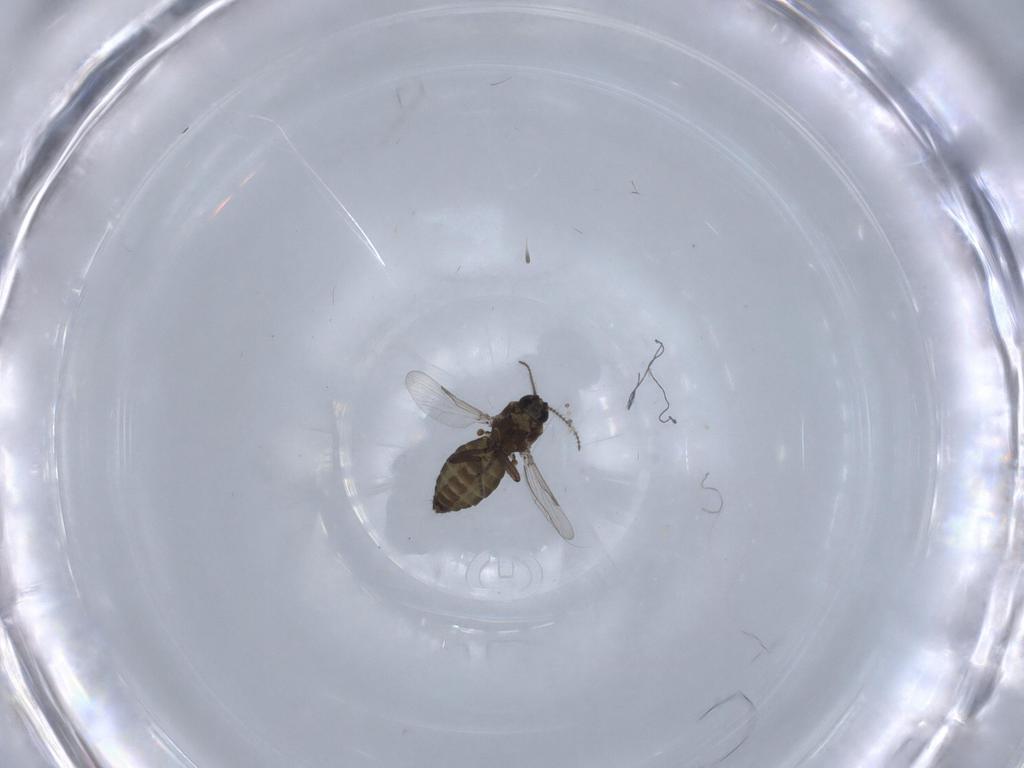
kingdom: Animalia
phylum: Arthropoda
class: Insecta
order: Diptera
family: Cecidomyiidae
